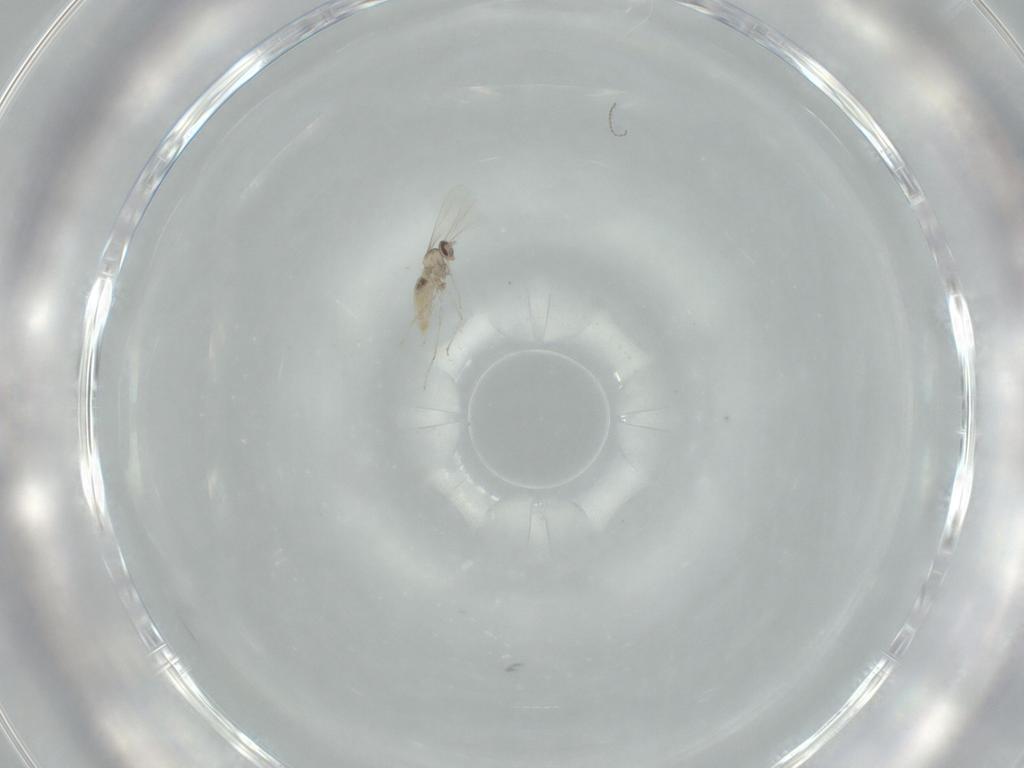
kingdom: Animalia
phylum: Arthropoda
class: Insecta
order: Diptera
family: Cecidomyiidae
